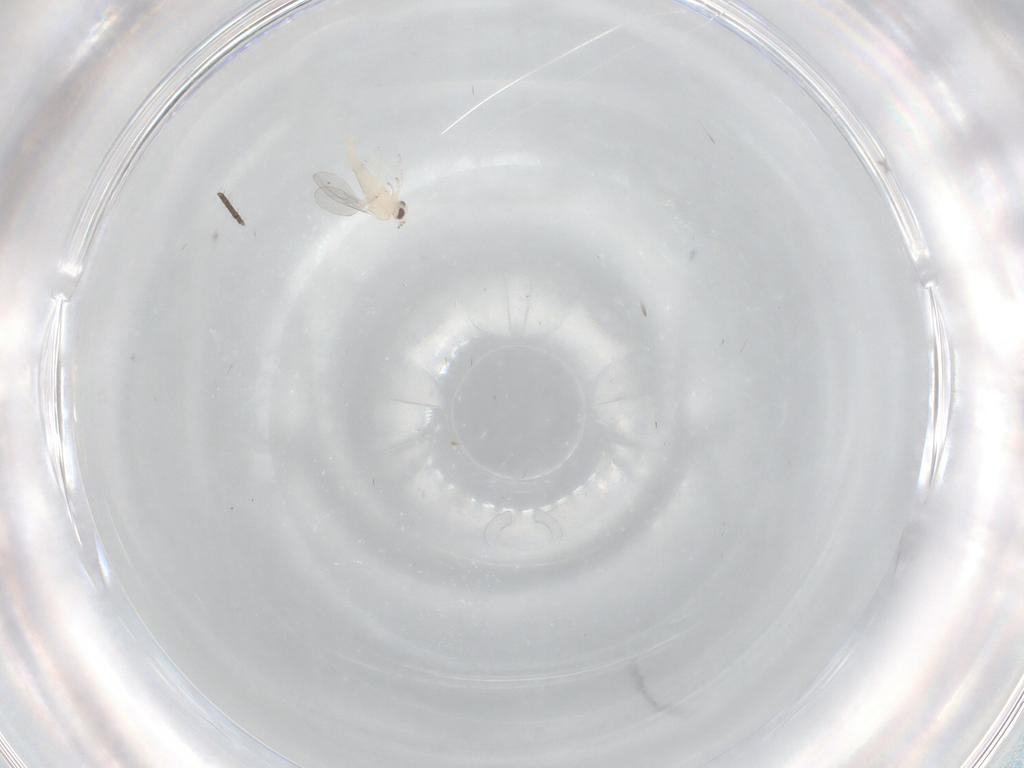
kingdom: Animalia
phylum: Arthropoda
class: Insecta
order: Diptera
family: Cecidomyiidae
